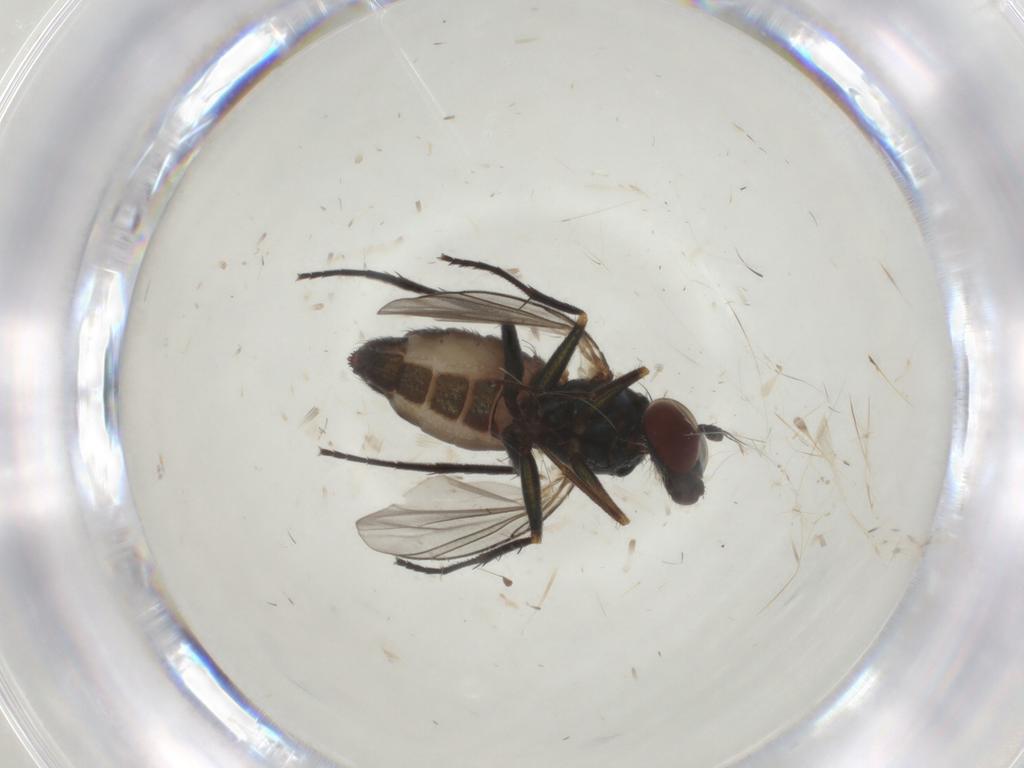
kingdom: Animalia
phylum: Arthropoda
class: Insecta
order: Diptera
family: Dolichopodidae
